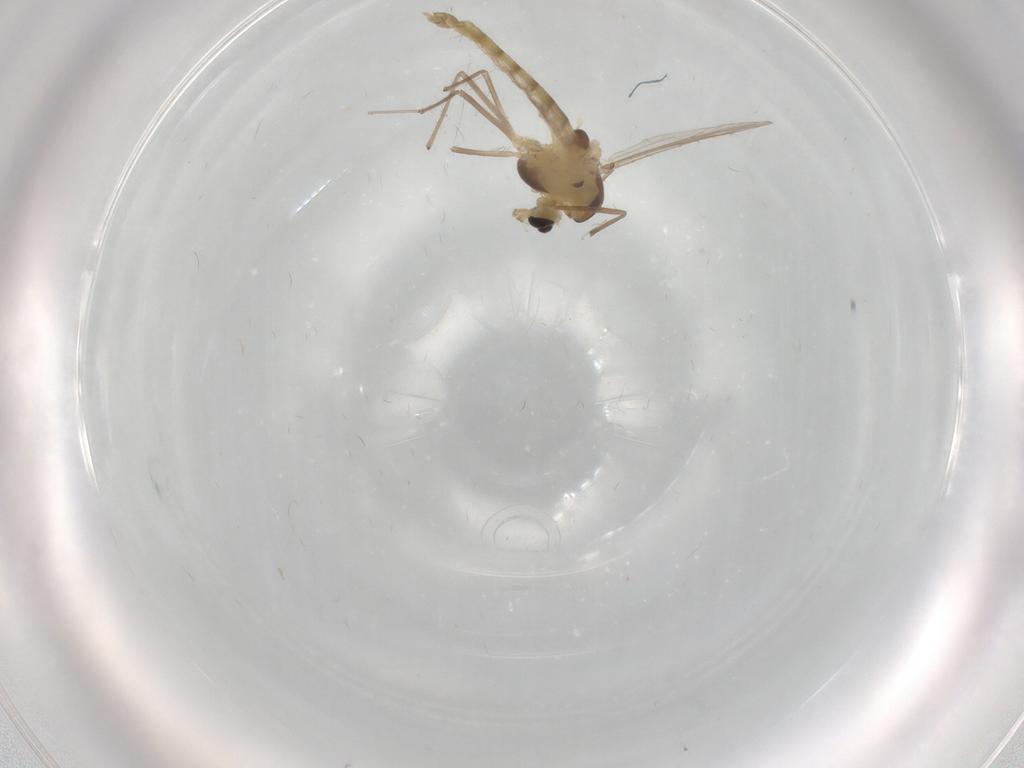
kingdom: Animalia
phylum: Arthropoda
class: Insecta
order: Diptera
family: Chironomidae
